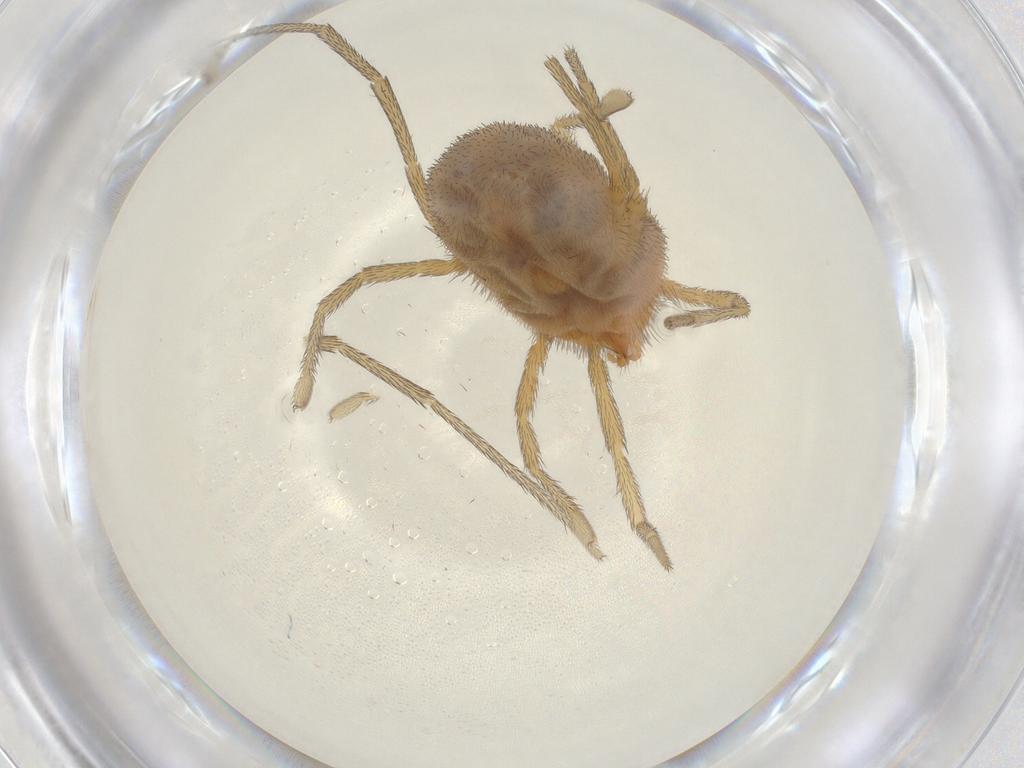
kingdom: Animalia
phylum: Arthropoda
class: Arachnida
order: Trombidiformes
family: Erythraeidae
